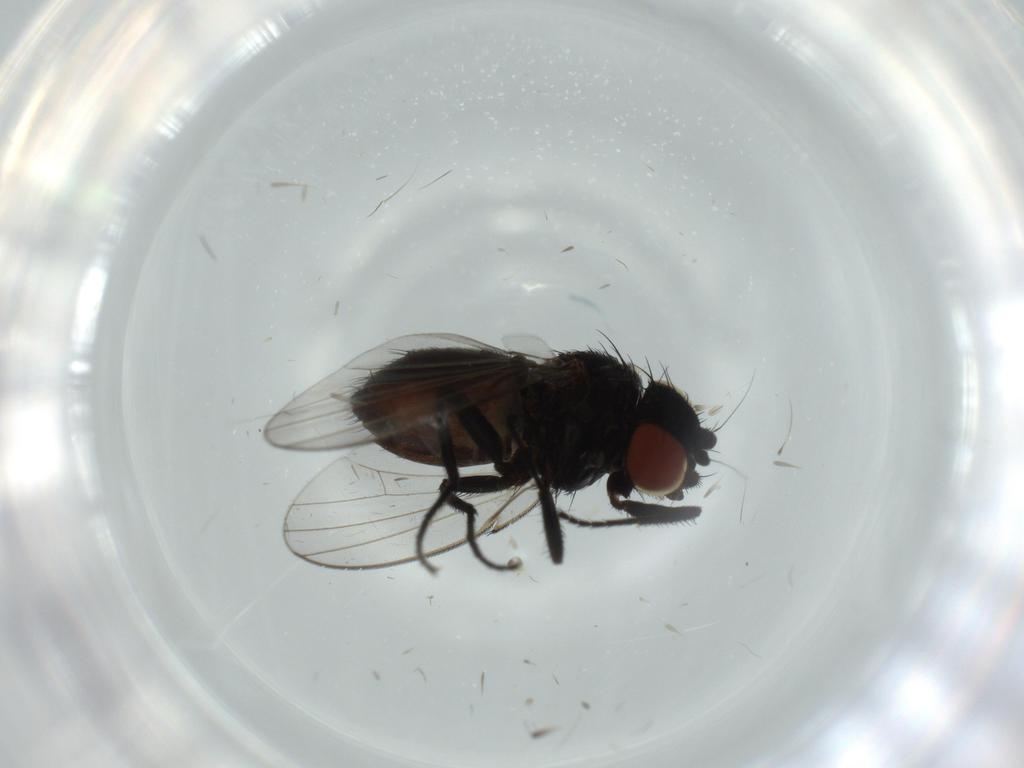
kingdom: Animalia
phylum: Arthropoda
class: Insecta
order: Diptera
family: Milichiidae
